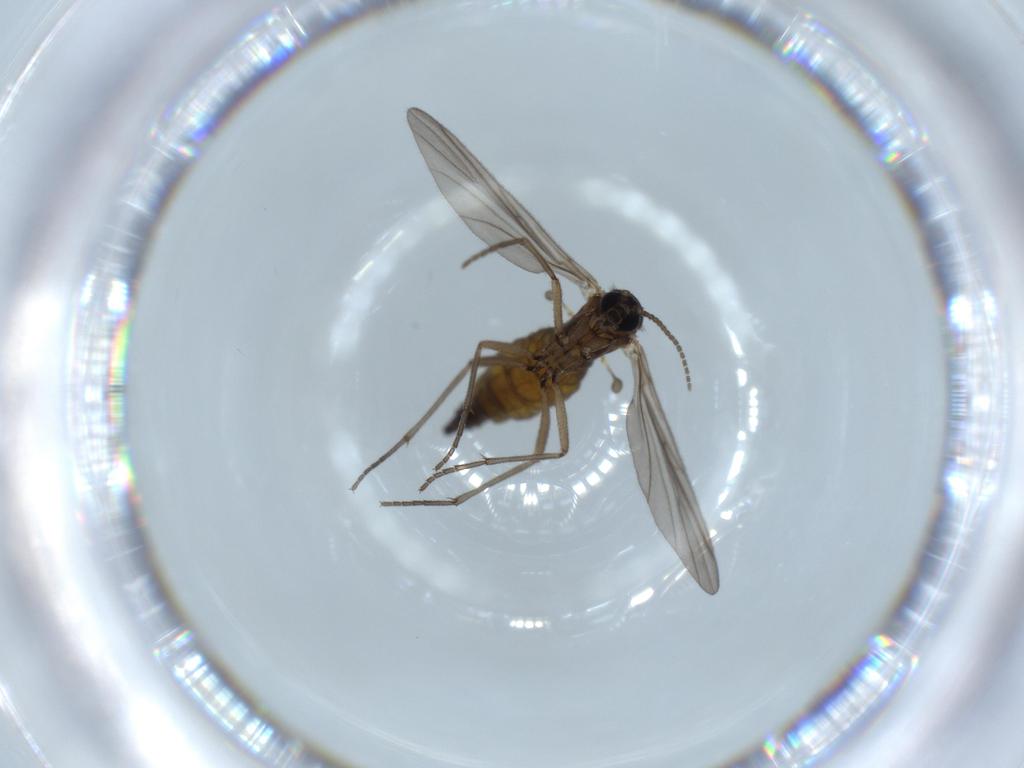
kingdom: Animalia
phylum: Arthropoda
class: Insecta
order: Diptera
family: Sciaridae
